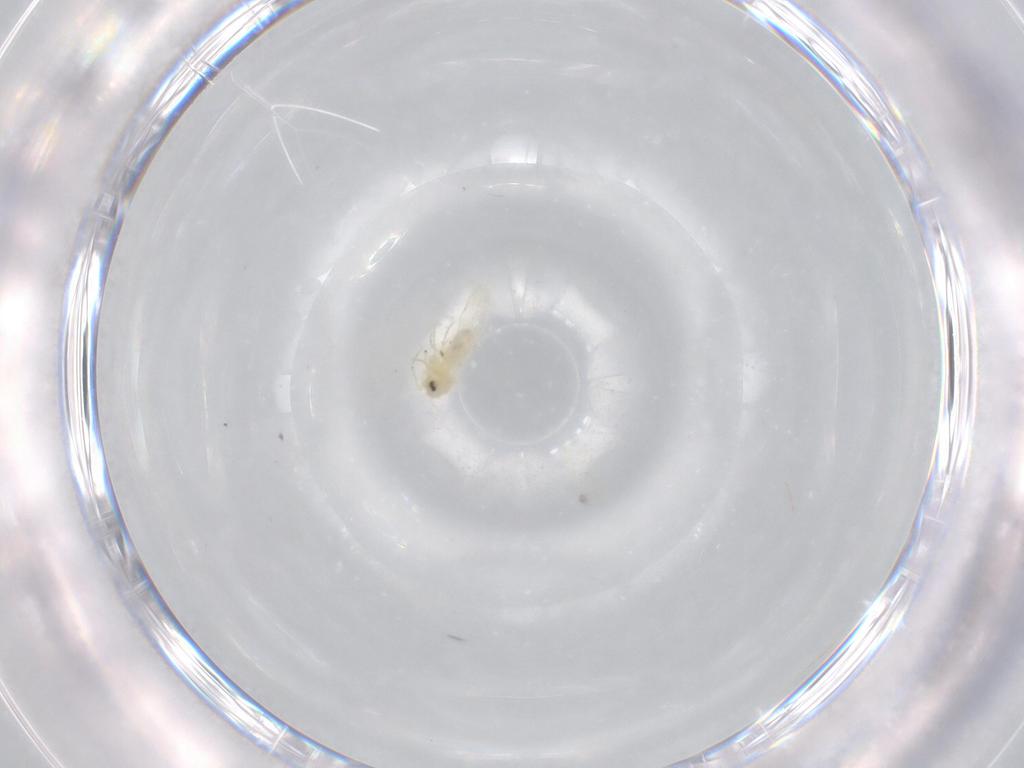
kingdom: Animalia
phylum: Arthropoda
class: Insecta
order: Hemiptera
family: Aleyrodidae
